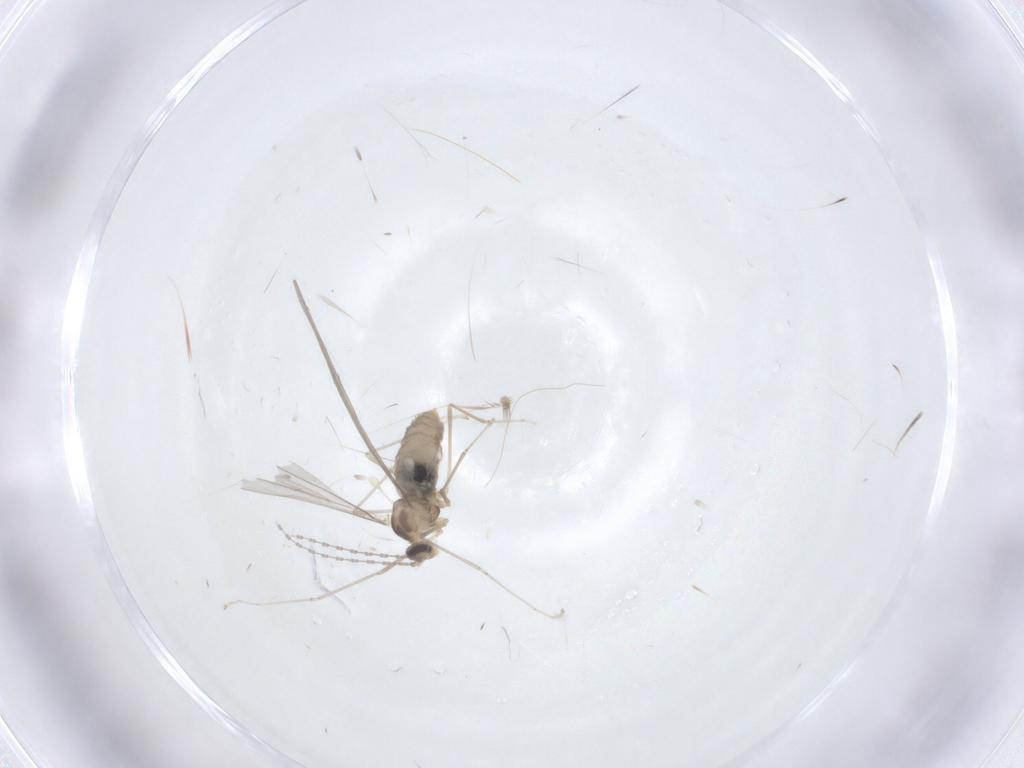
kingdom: Animalia
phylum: Arthropoda
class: Insecta
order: Diptera
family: Cecidomyiidae
